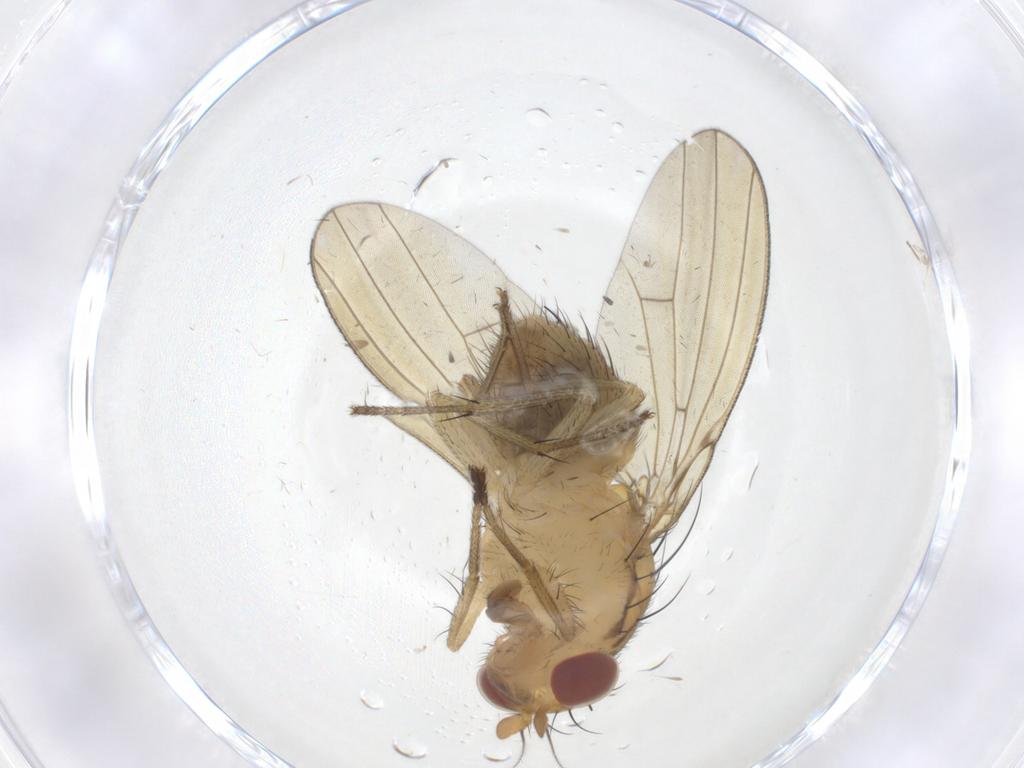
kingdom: Animalia
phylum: Arthropoda
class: Insecta
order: Diptera
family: Lauxaniidae
